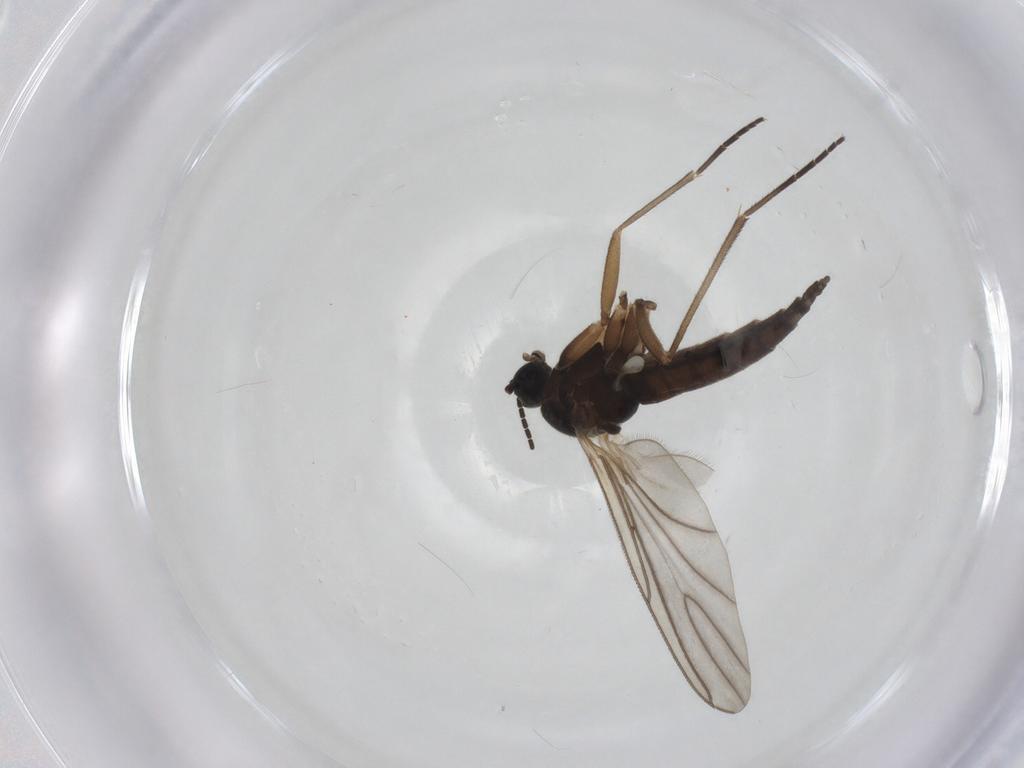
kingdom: Animalia
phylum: Arthropoda
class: Insecta
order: Diptera
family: Sciaridae
